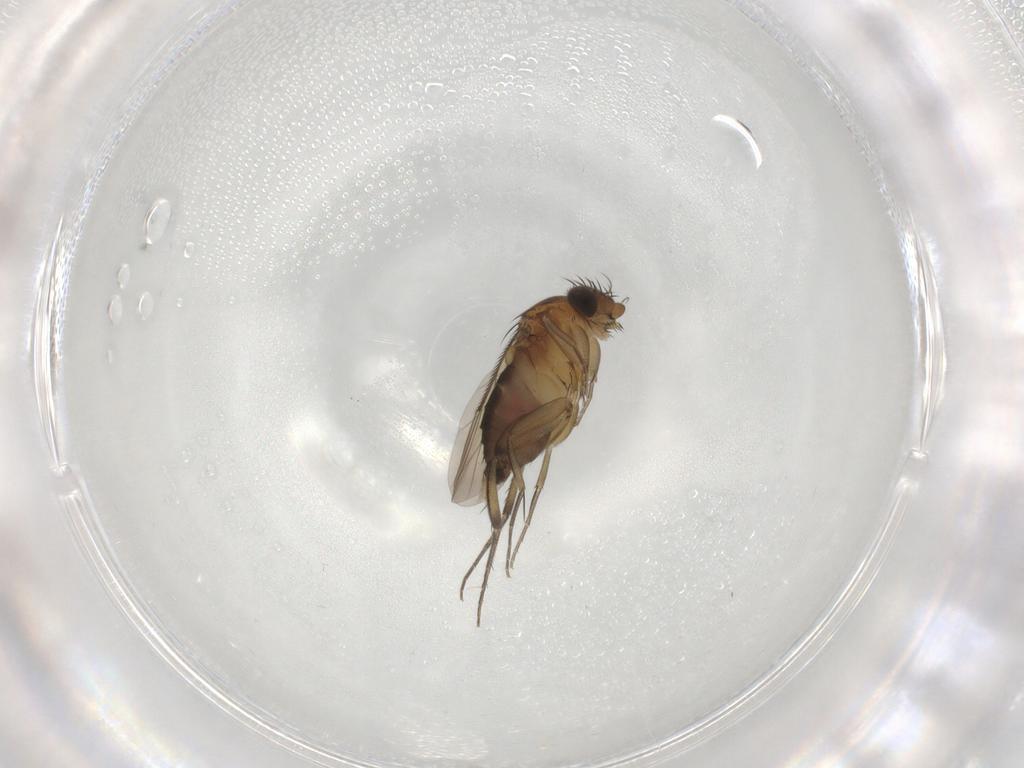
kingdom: Animalia
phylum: Arthropoda
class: Insecta
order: Diptera
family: Phoridae
